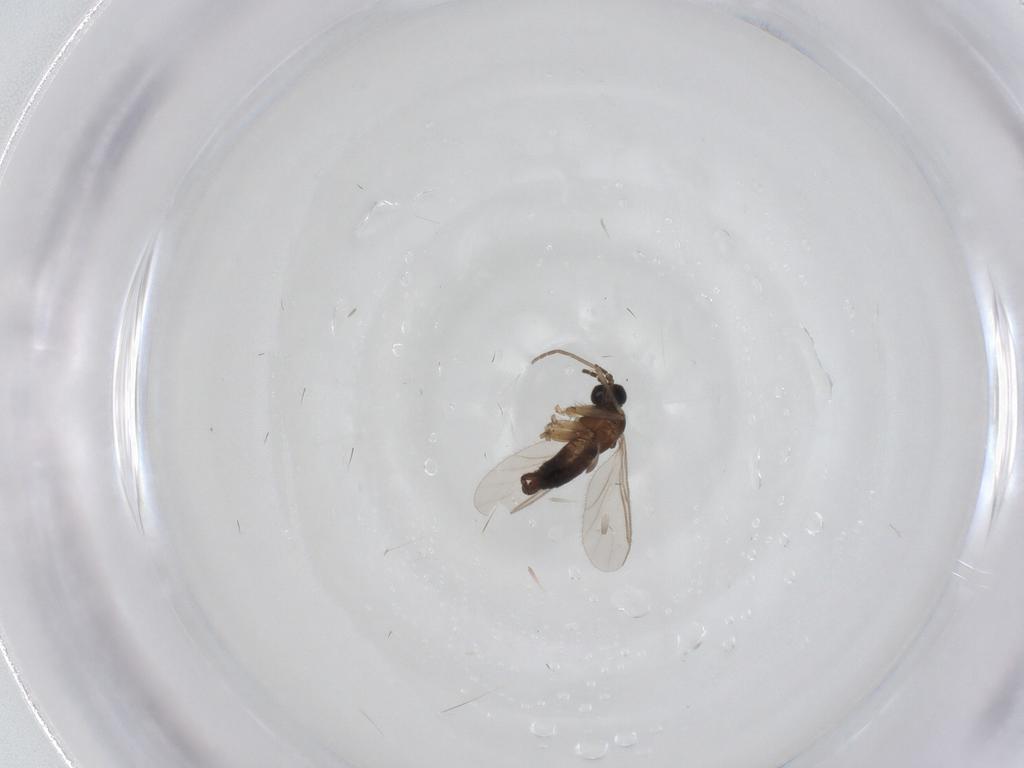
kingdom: Animalia
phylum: Arthropoda
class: Insecta
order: Diptera
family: Sciaridae
